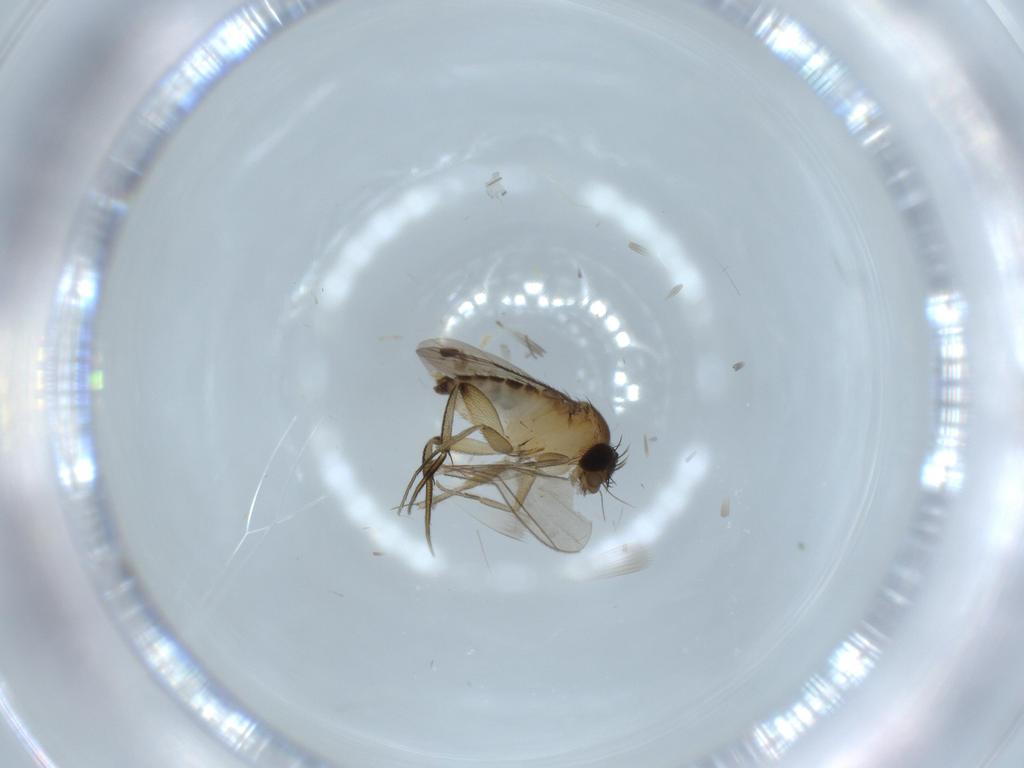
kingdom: Animalia
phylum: Arthropoda
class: Insecta
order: Diptera
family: Phoridae
